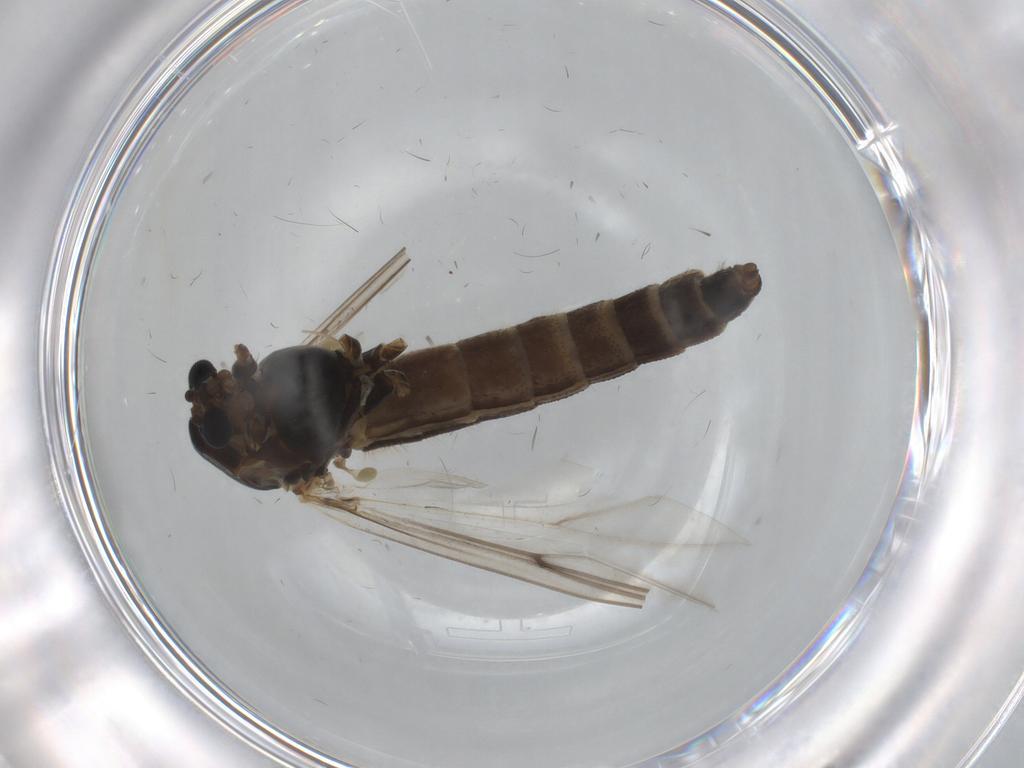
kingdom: Animalia
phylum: Arthropoda
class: Insecta
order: Diptera
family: Chironomidae
